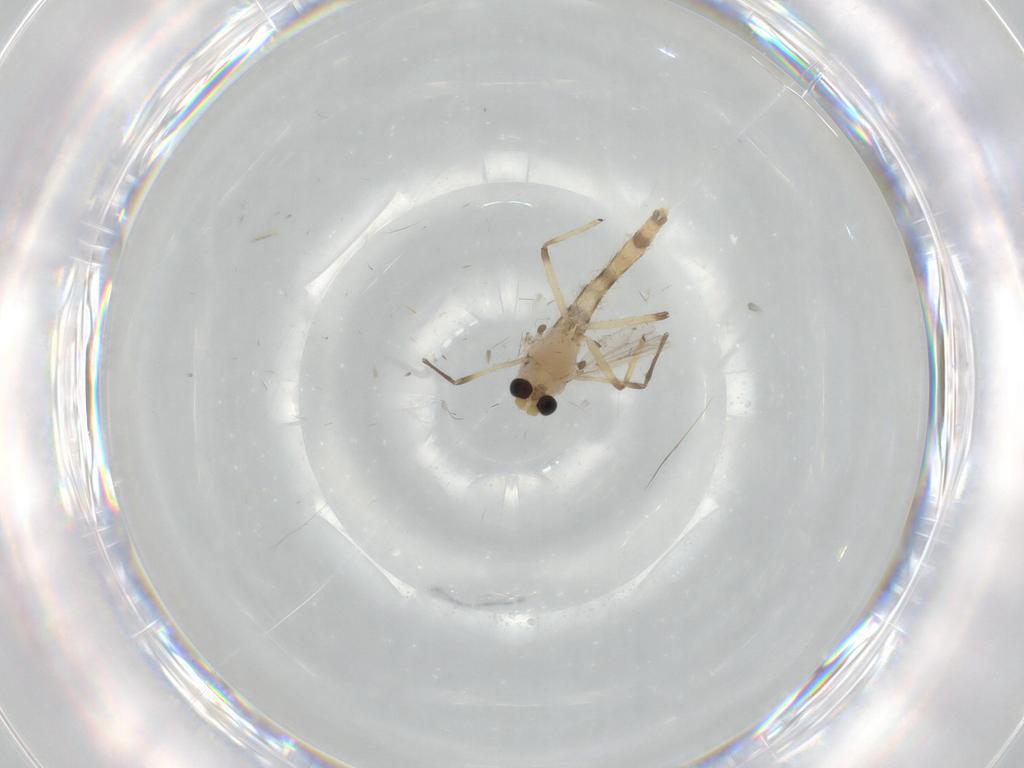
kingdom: Animalia
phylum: Arthropoda
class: Insecta
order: Diptera
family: Chironomidae
